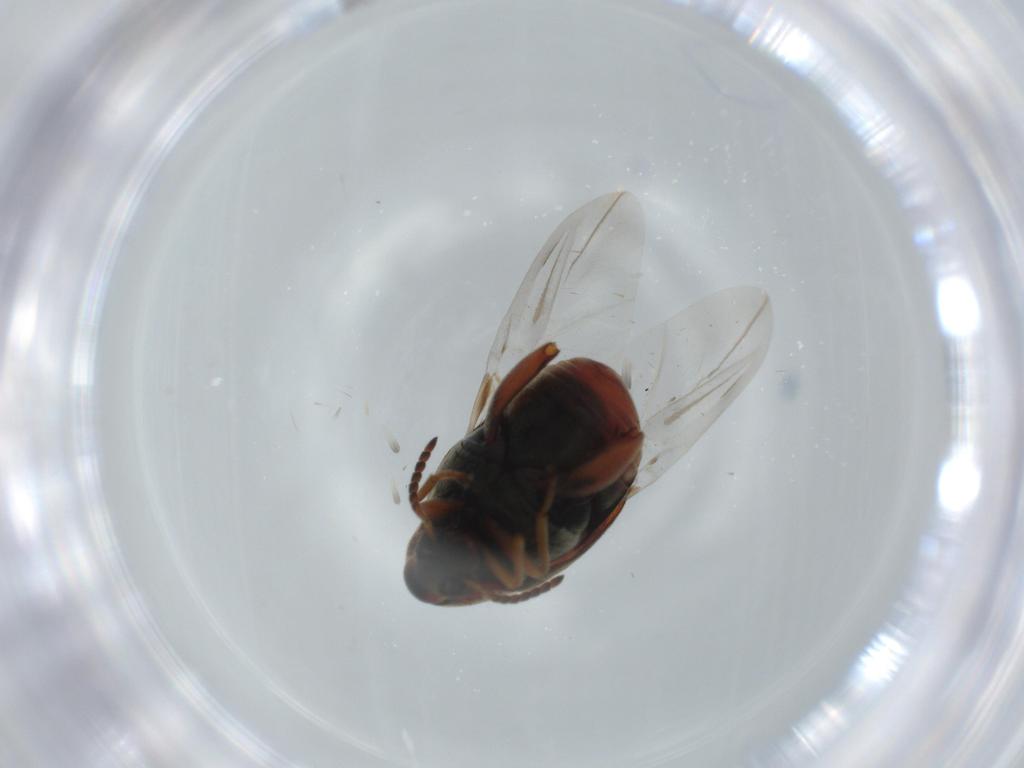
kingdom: Animalia
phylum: Arthropoda
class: Insecta
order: Coleoptera
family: Chrysomelidae
